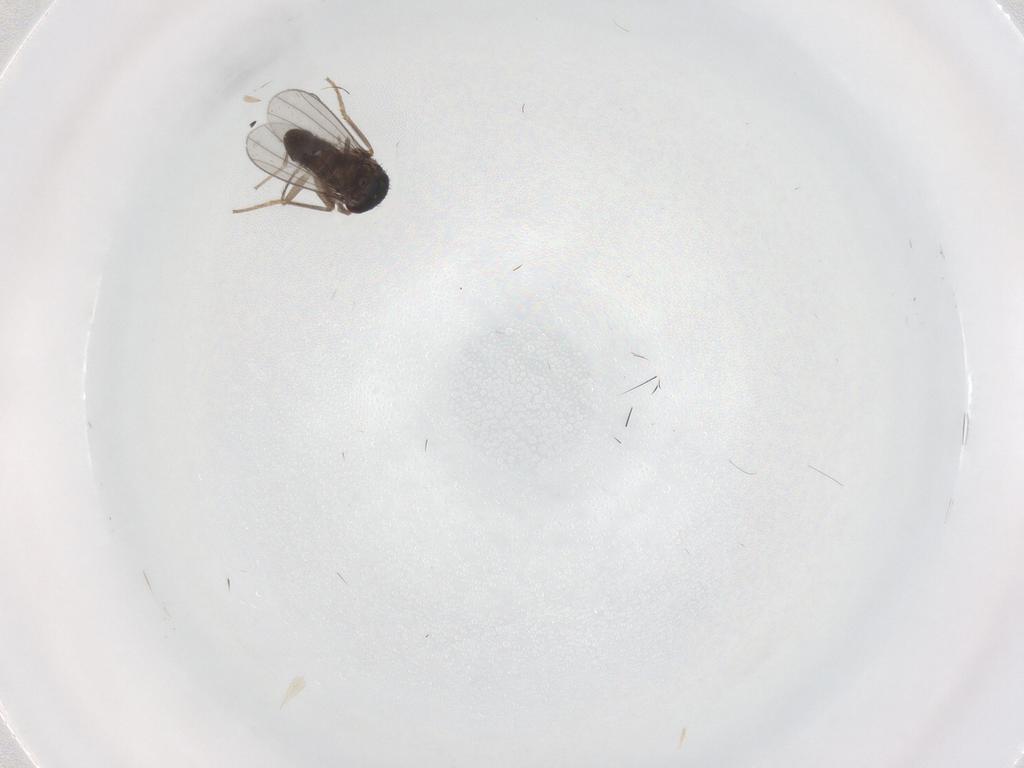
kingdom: Animalia
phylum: Arthropoda
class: Insecta
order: Diptera
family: Dolichopodidae
